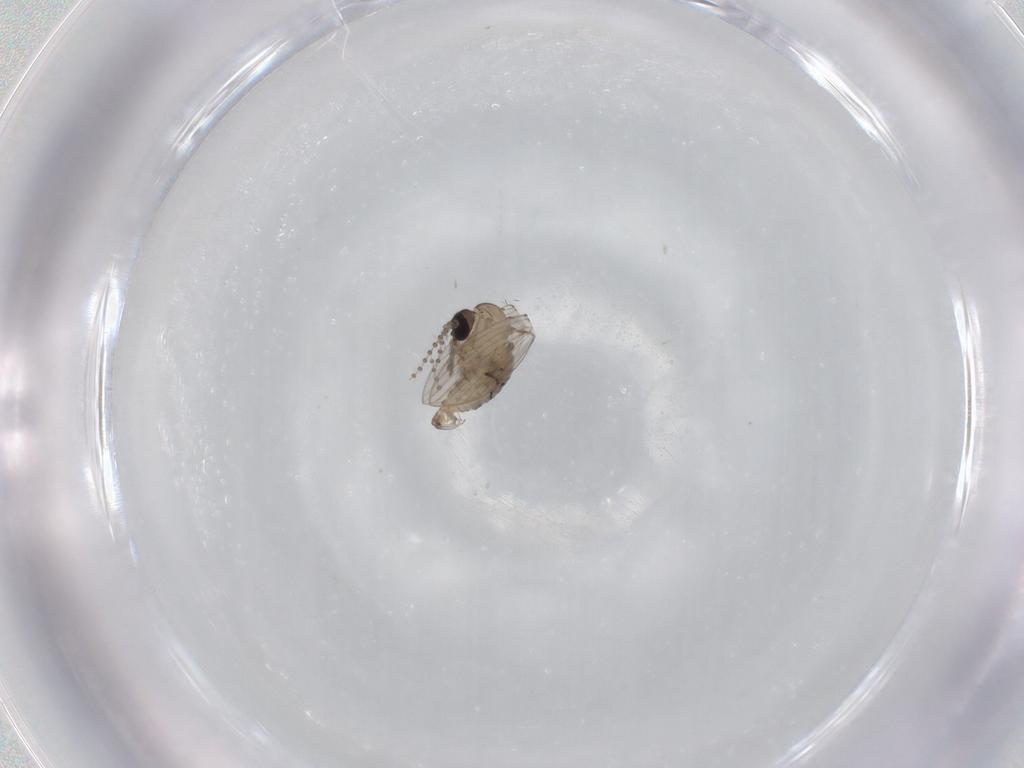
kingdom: Animalia
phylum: Arthropoda
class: Insecta
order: Diptera
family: Psychodidae
